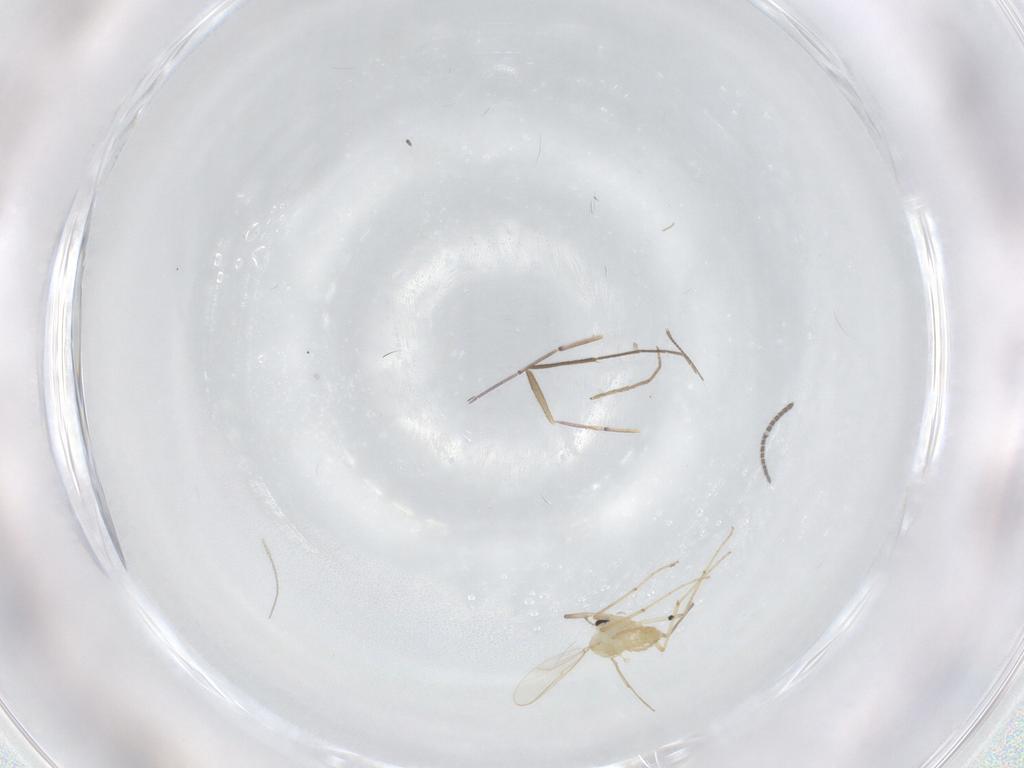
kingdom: Animalia
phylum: Arthropoda
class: Insecta
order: Diptera
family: Chironomidae
